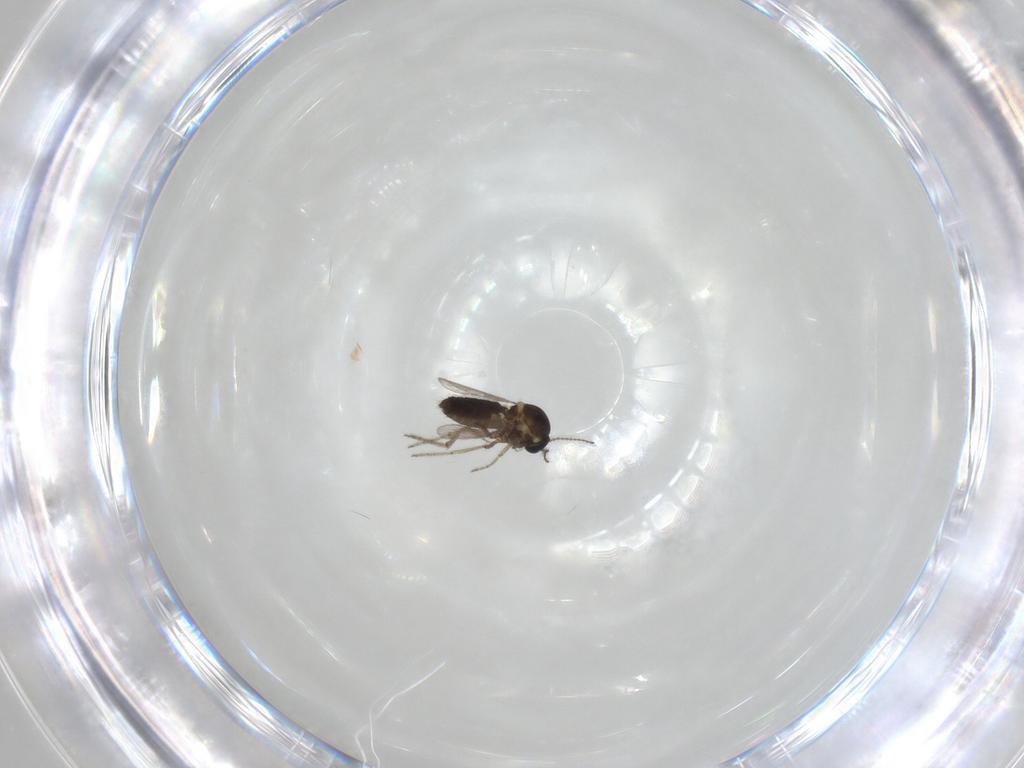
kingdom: Animalia
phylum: Arthropoda
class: Insecta
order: Diptera
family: Ceratopogonidae
